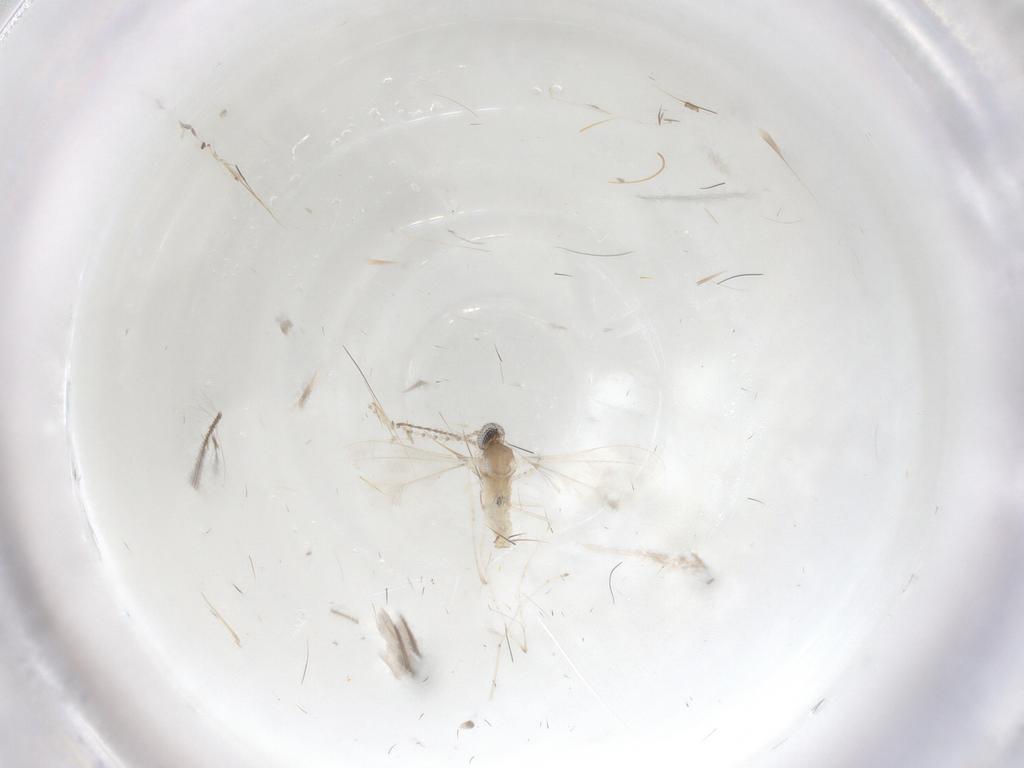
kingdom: Animalia
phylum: Arthropoda
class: Insecta
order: Diptera
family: Cecidomyiidae
